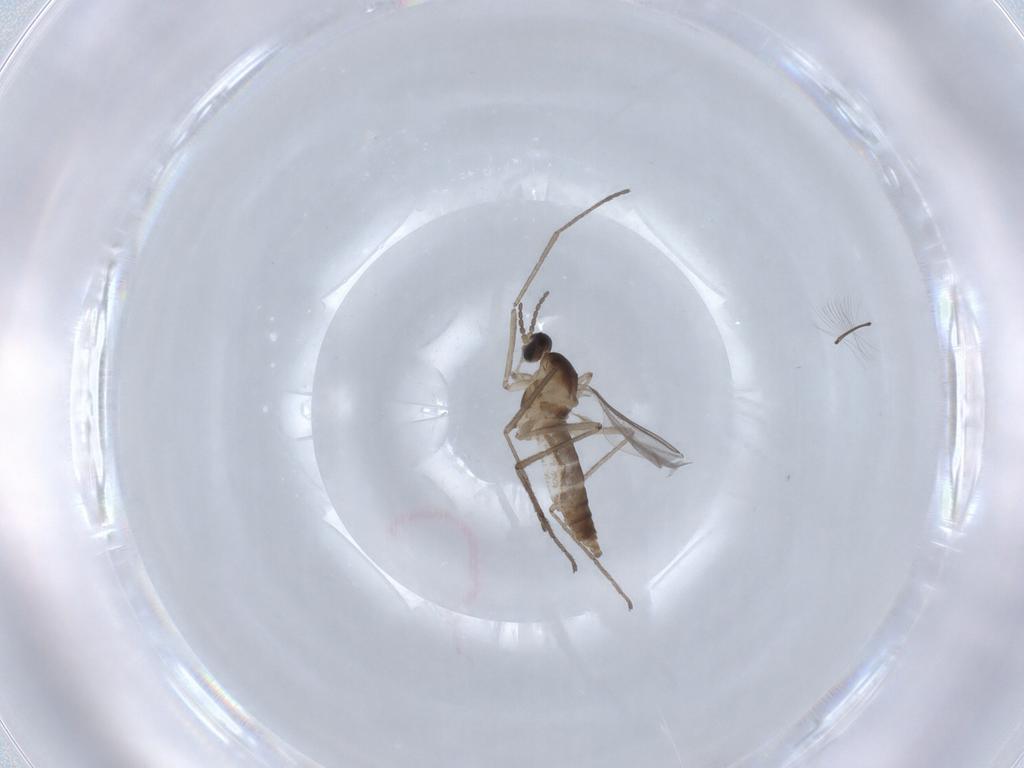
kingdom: Animalia
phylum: Arthropoda
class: Insecta
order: Diptera
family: Cecidomyiidae
